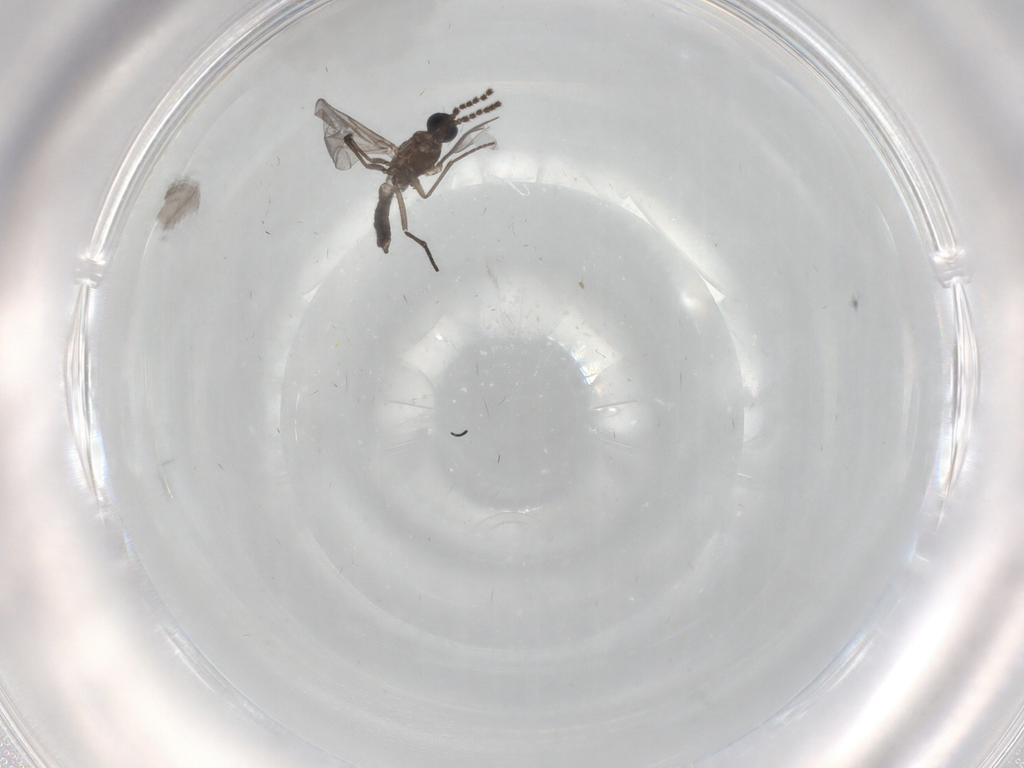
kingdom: Animalia
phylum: Arthropoda
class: Insecta
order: Diptera
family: Sciaridae
